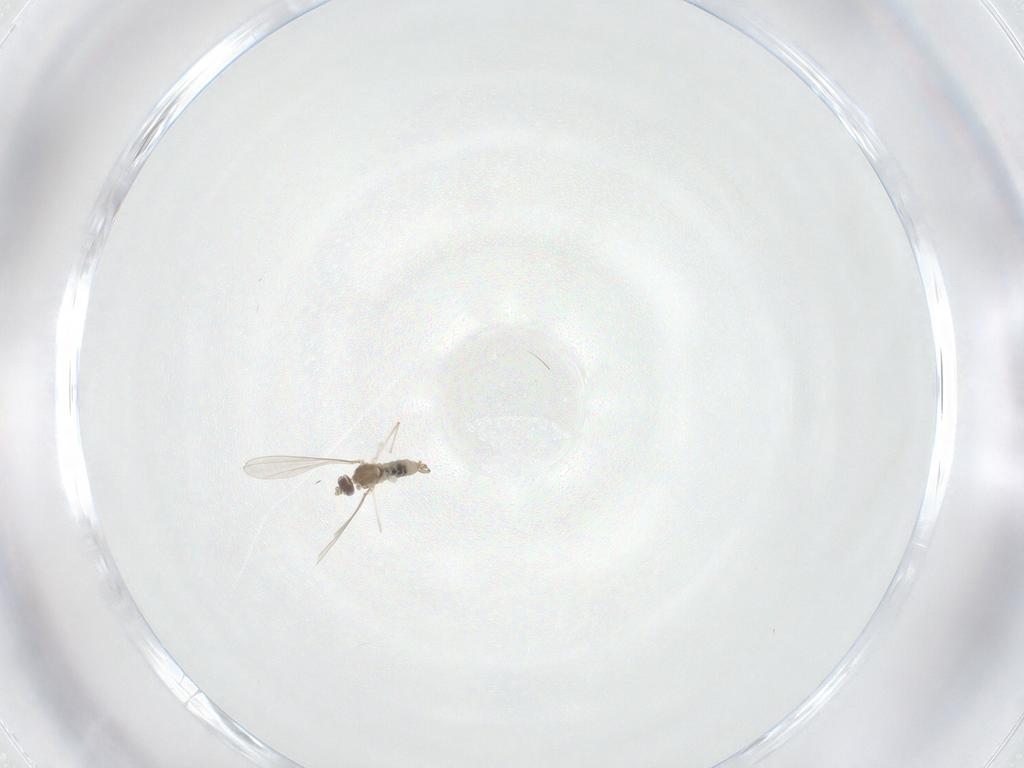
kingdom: Animalia
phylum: Arthropoda
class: Insecta
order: Diptera
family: Cecidomyiidae
